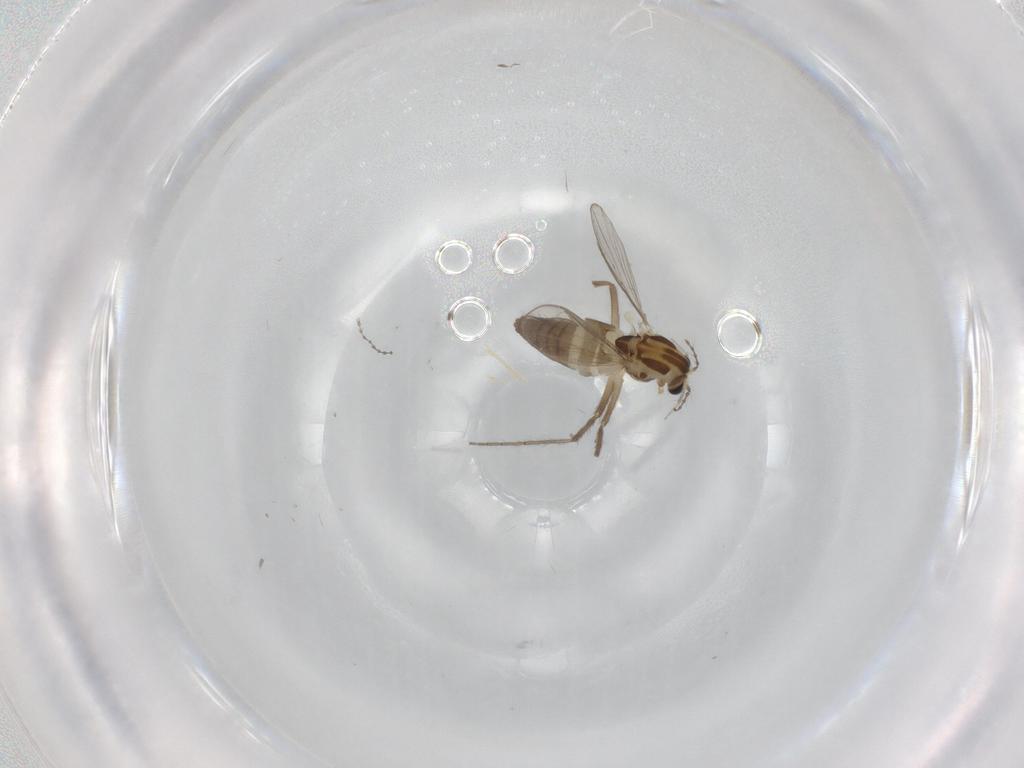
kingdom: Animalia
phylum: Arthropoda
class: Insecta
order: Diptera
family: Chironomidae
